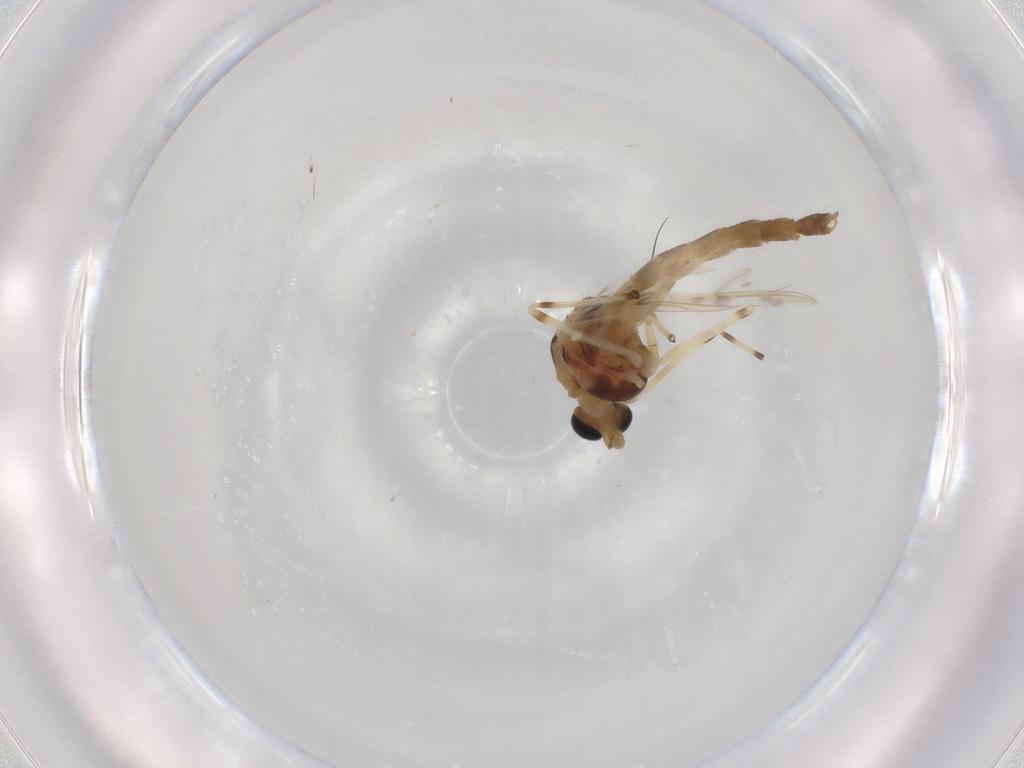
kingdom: Animalia
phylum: Arthropoda
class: Insecta
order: Diptera
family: Chironomidae
